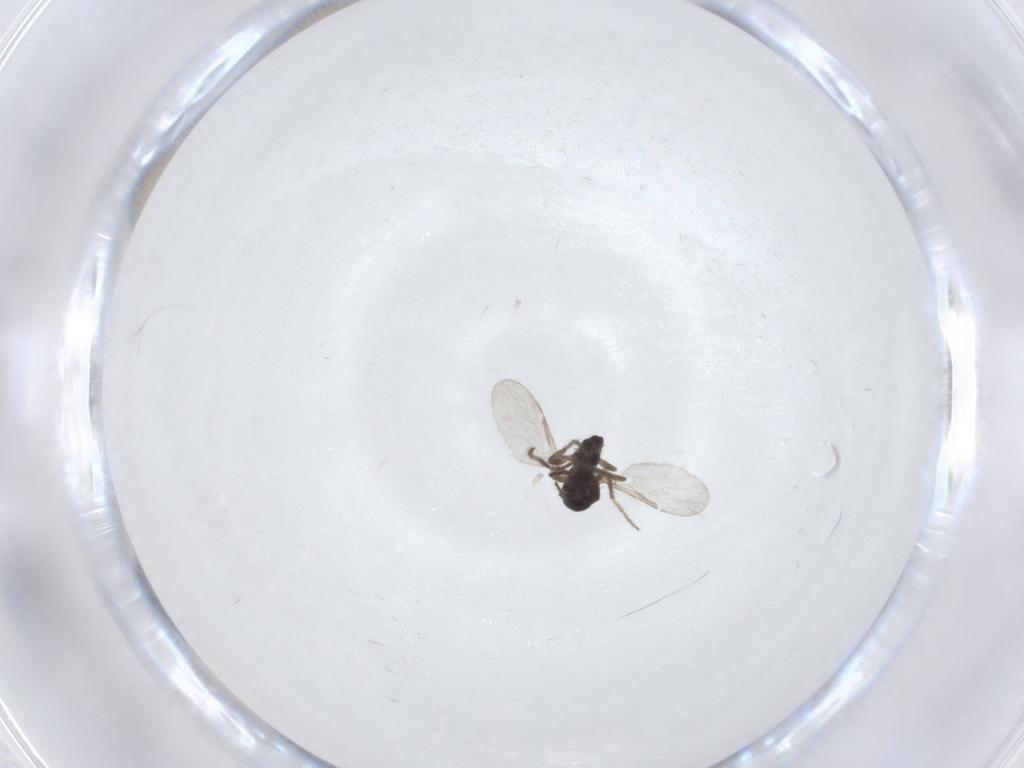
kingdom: Animalia
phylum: Arthropoda
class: Insecta
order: Diptera
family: Ceratopogonidae
